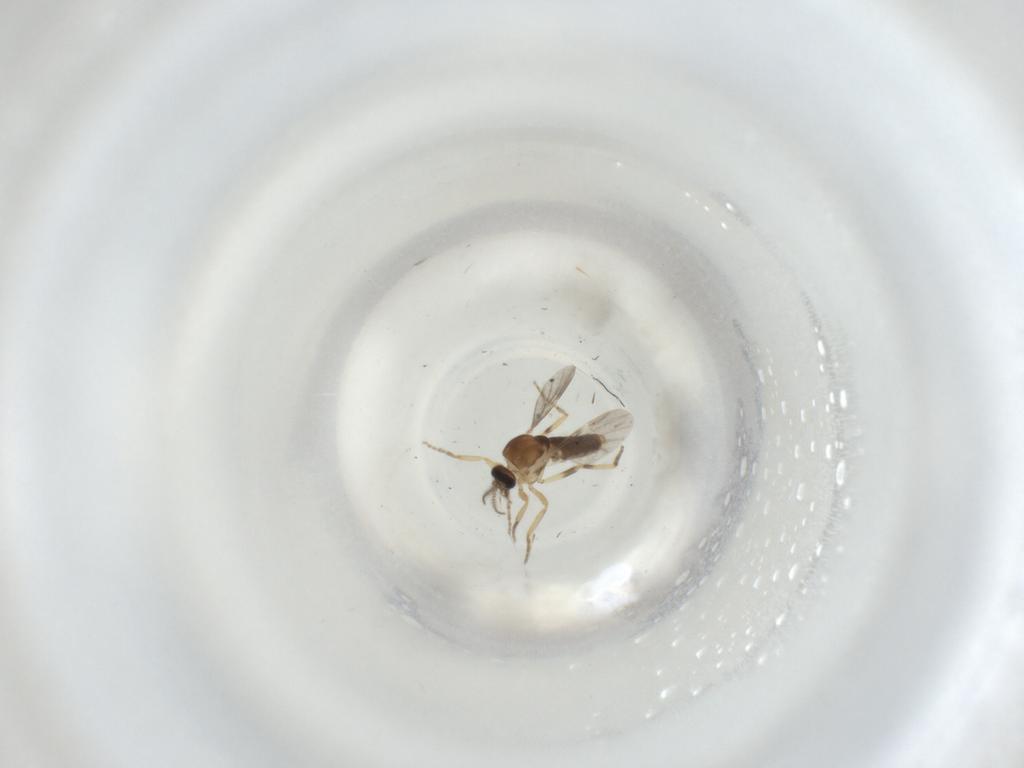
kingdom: Animalia
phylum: Arthropoda
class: Insecta
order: Diptera
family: Ceratopogonidae
